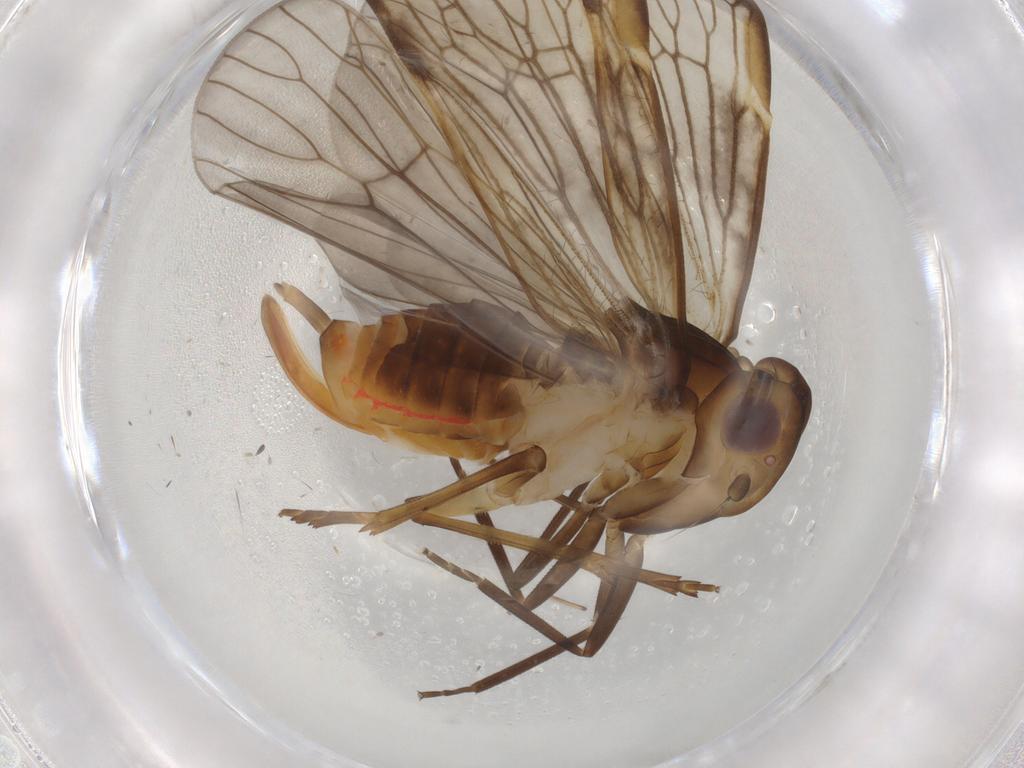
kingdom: Animalia
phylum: Arthropoda
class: Insecta
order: Hemiptera
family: Cixiidae
